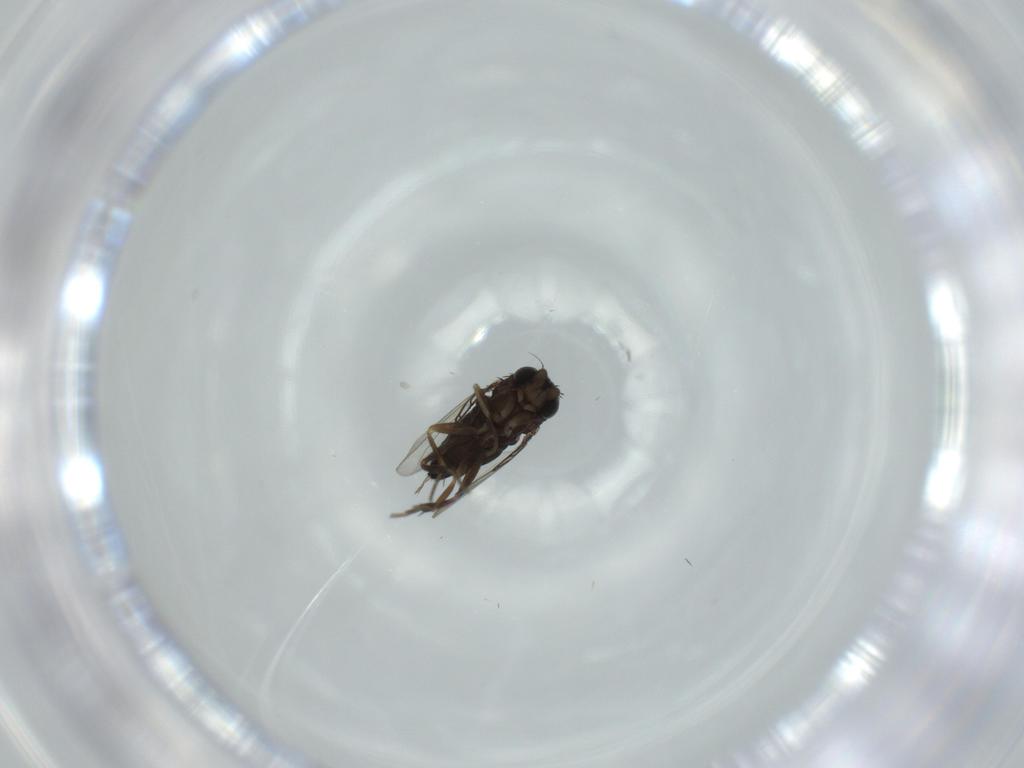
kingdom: Animalia
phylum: Arthropoda
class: Insecta
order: Diptera
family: Phoridae
